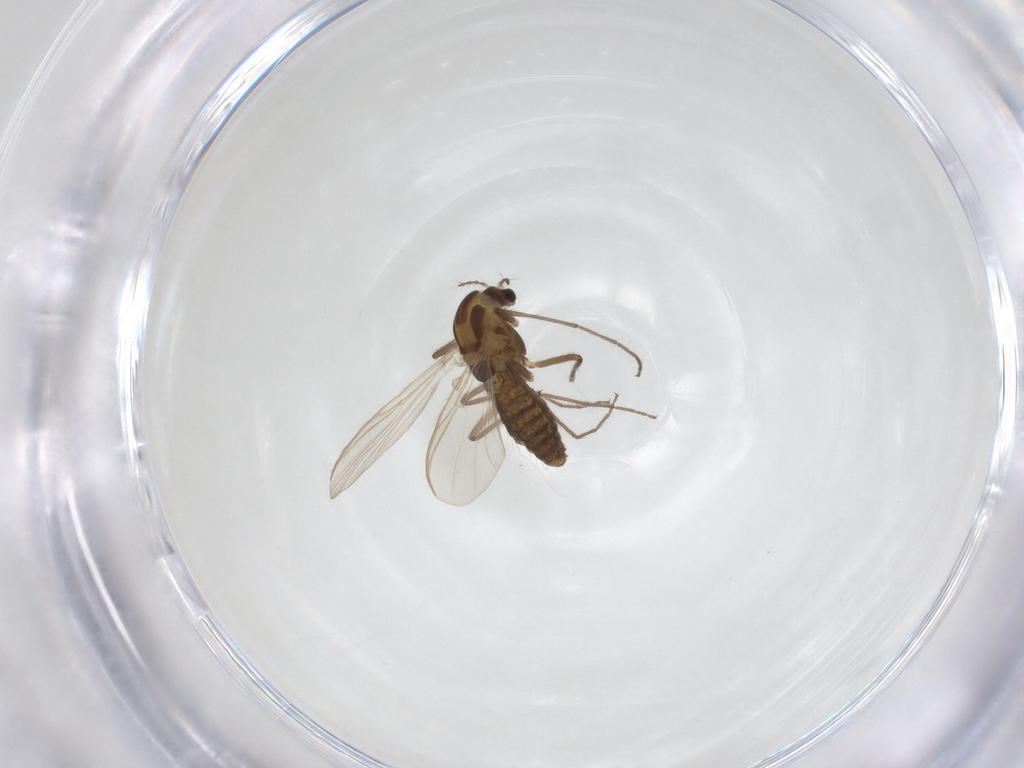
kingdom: Animalia
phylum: Arthropoda
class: Insecta
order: Diptera
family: Chironomidae
